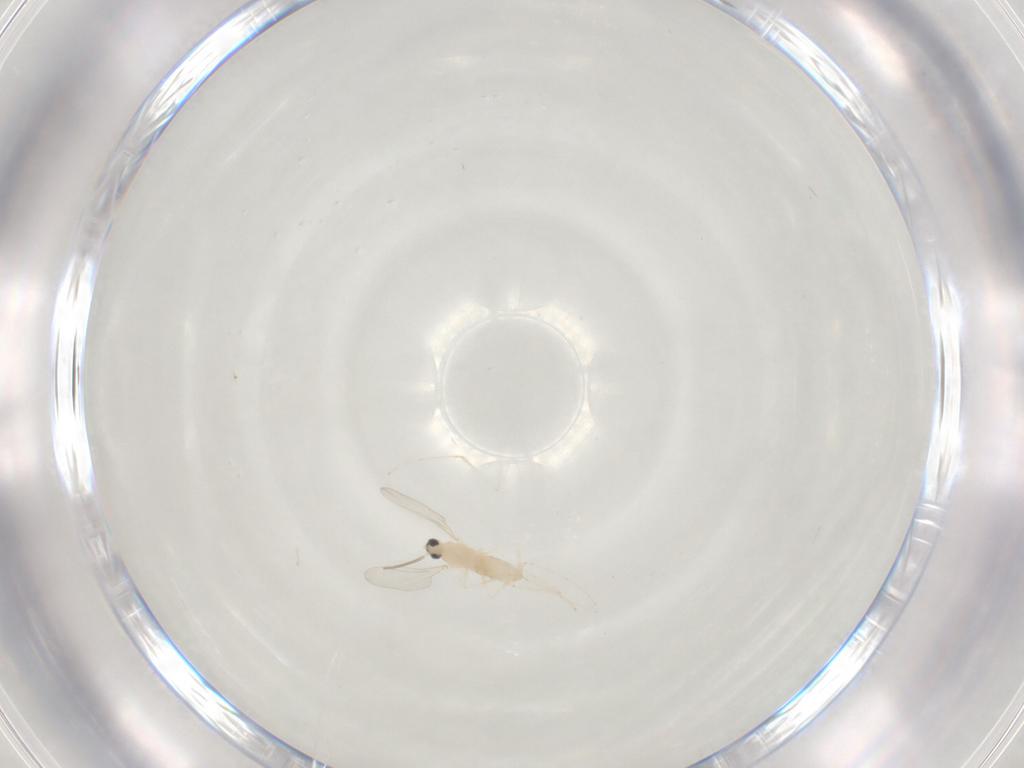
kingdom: Animalia
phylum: Arthropoda
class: Insecta
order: Diptera
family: Cecidomyiidae
